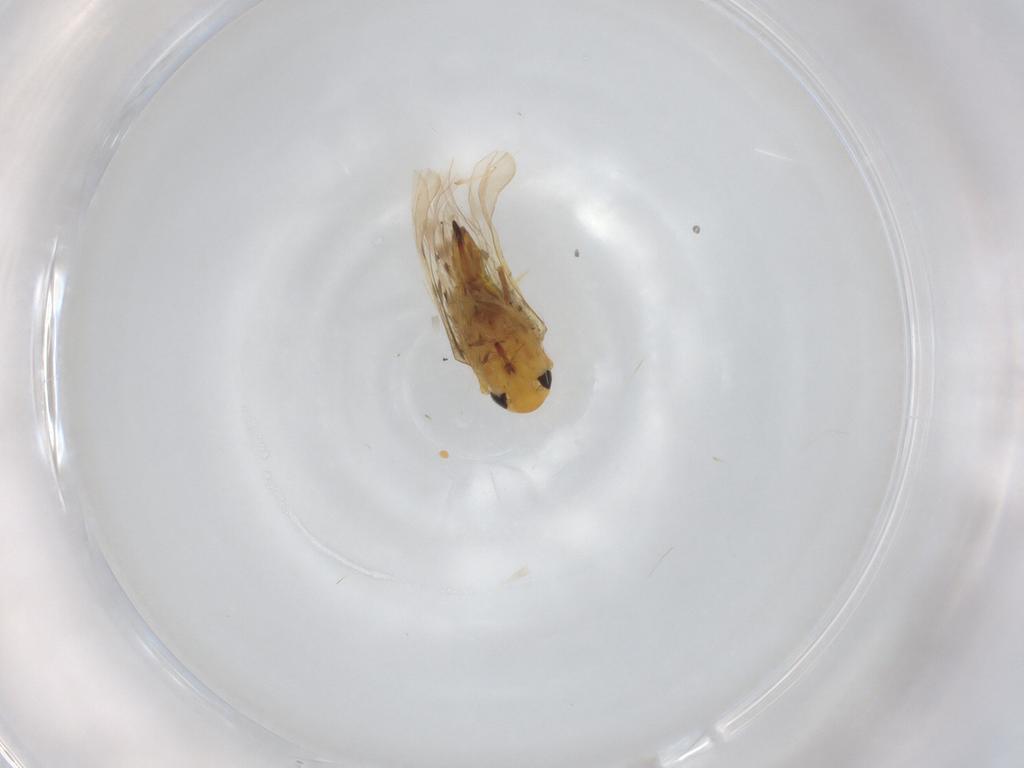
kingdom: Animalia
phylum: Arthropoda
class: Insecta
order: Hemiptera
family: Cicadellidae
